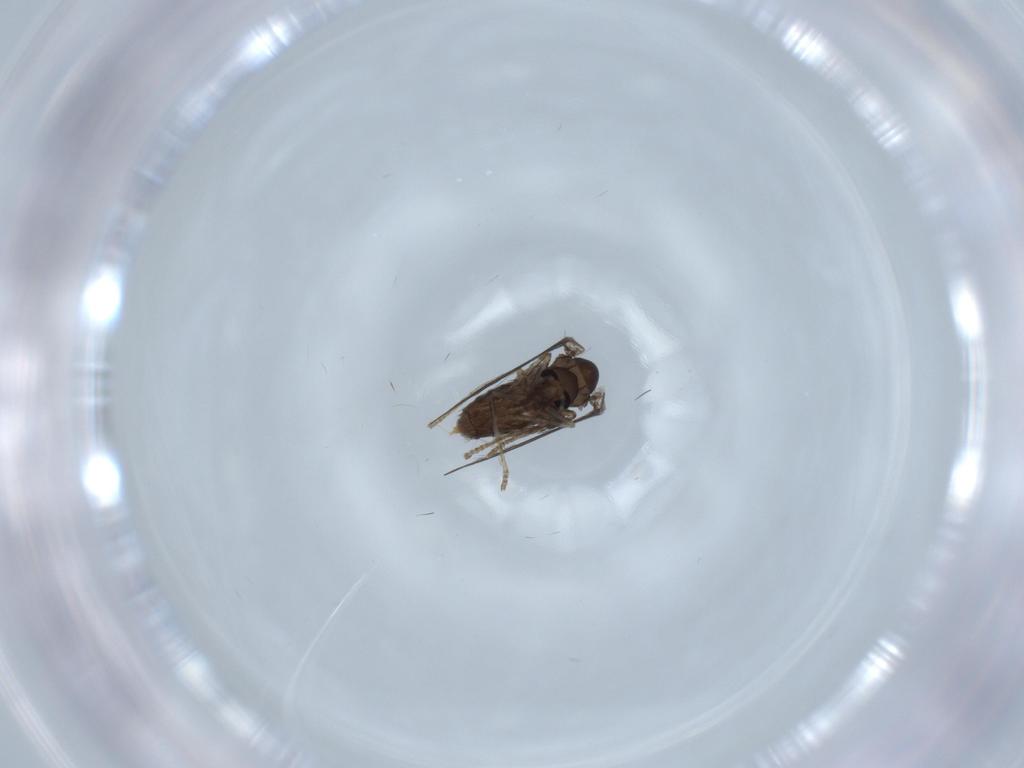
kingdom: Animalia
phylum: Arthropoda
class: Insecta
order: Diptera
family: Psychodidae
